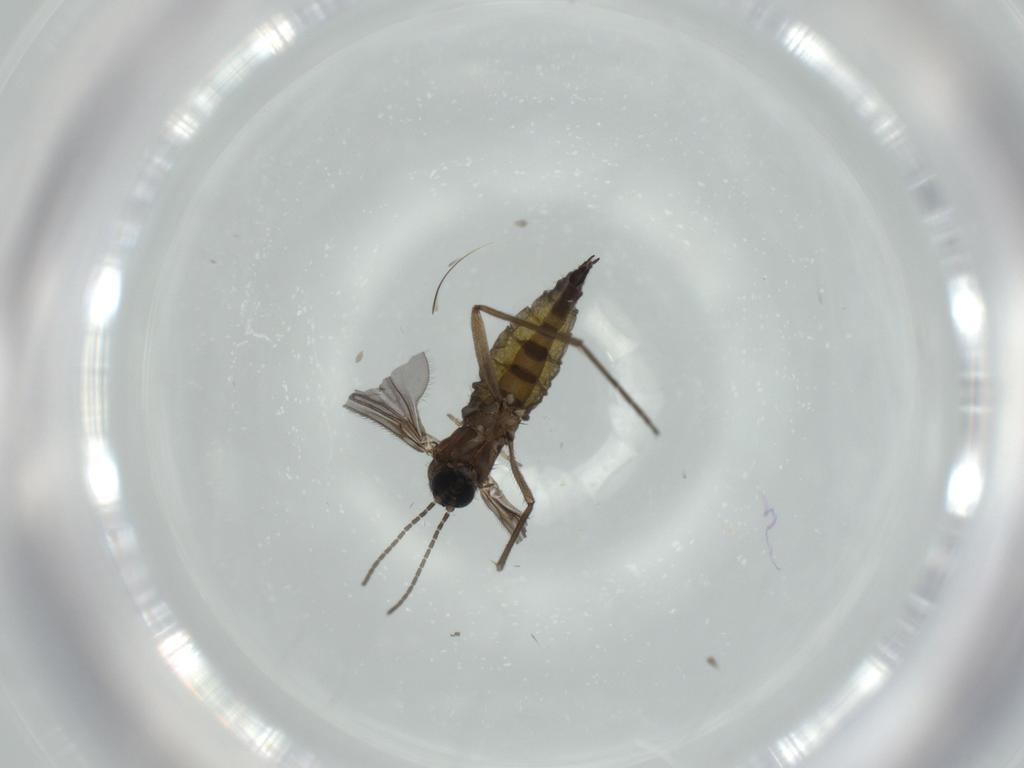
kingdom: Animalia
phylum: Arthropoda
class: Insecta
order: Diptera
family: Sciaridae
